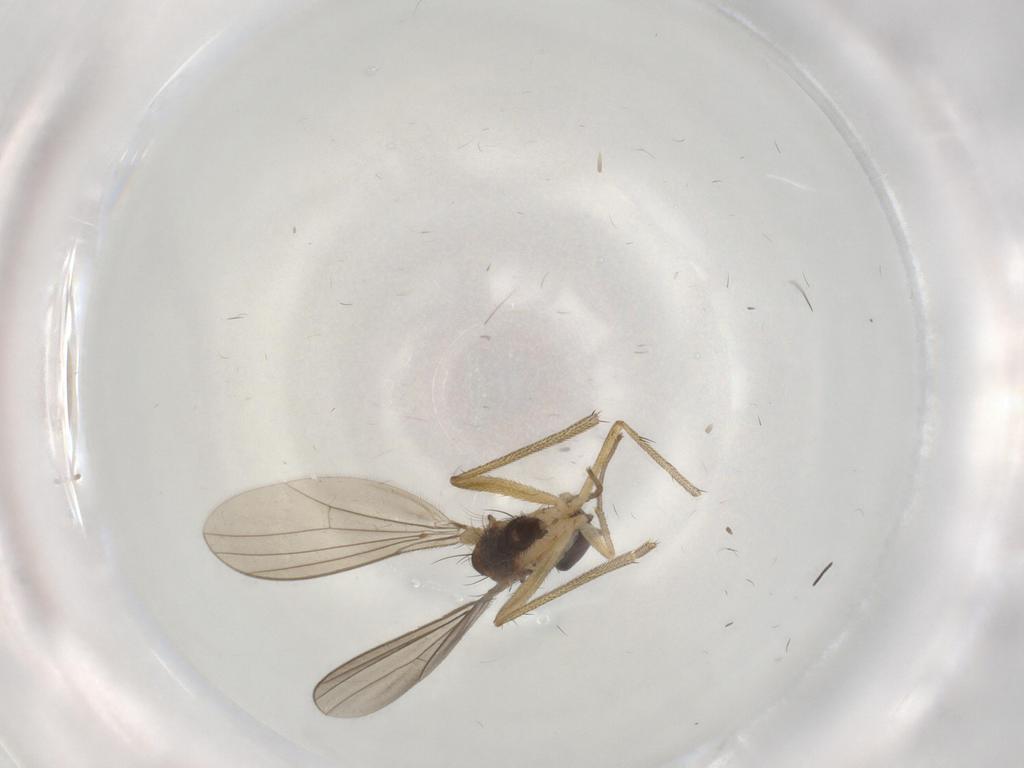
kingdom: Animalia
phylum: Arthropoda
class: Insecta
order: Diptera
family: Dolichopodidae
